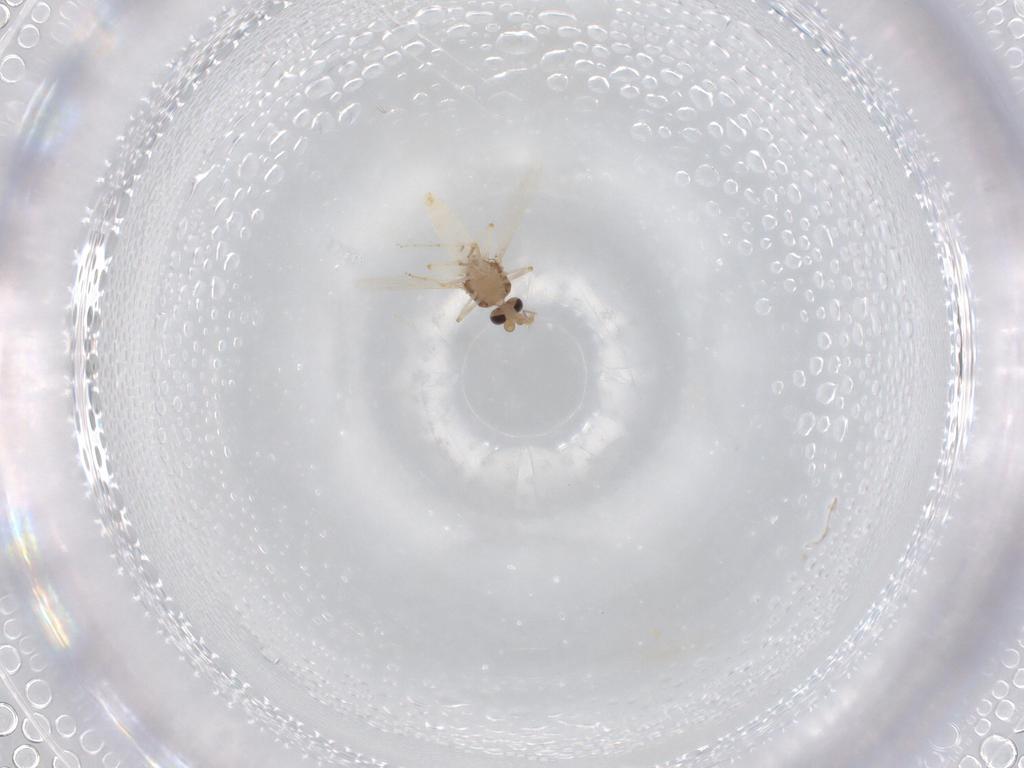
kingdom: Animalia
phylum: Arthropoda
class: Insecta
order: Diptera
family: Ceratopogonidae
